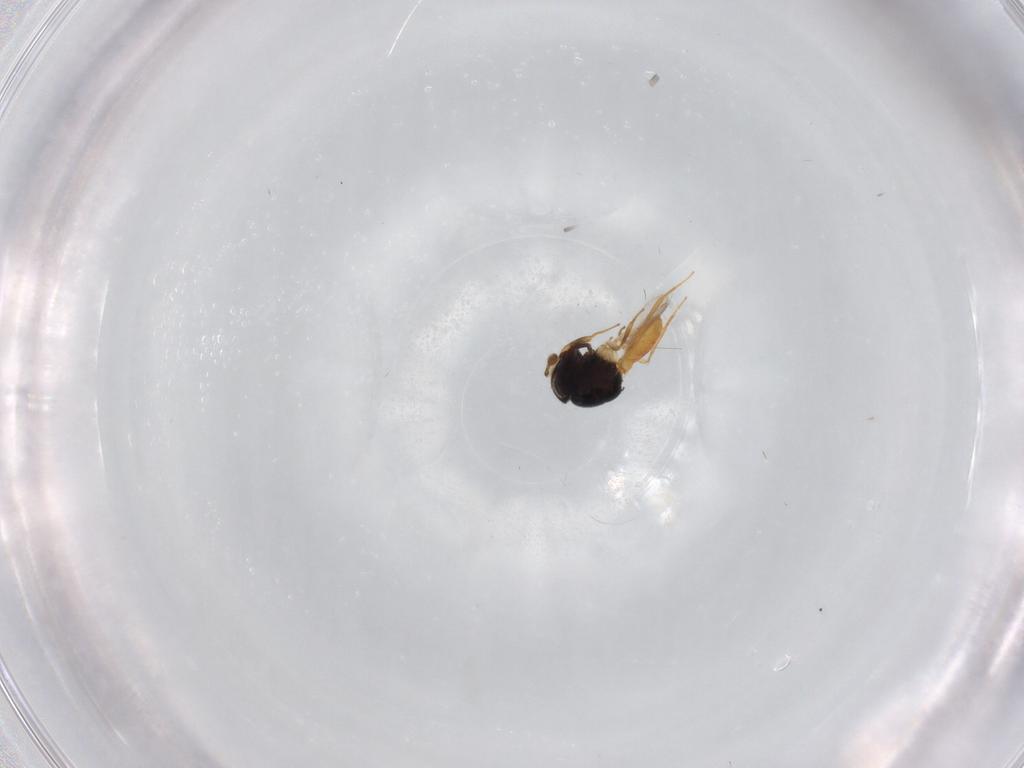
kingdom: Animalia
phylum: Arthropoda
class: Insecta
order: Hymenoptera
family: Scelionidae
